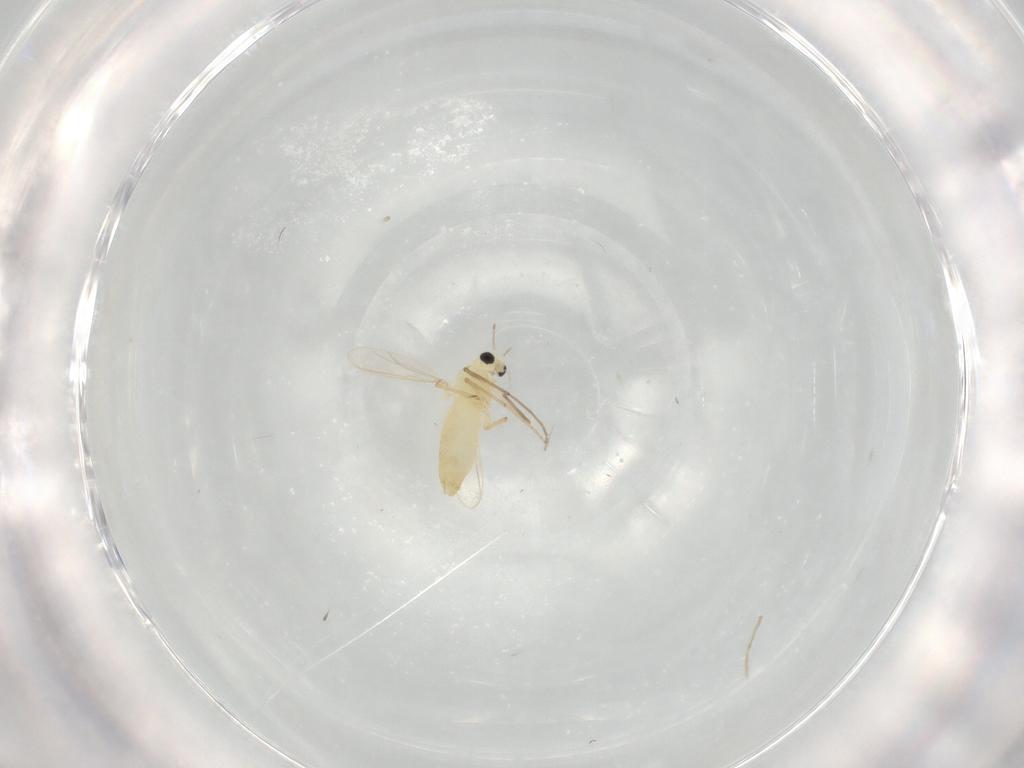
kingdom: Animalia
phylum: Arthropoda
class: Insecta
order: Diptera
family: Chironomidae
